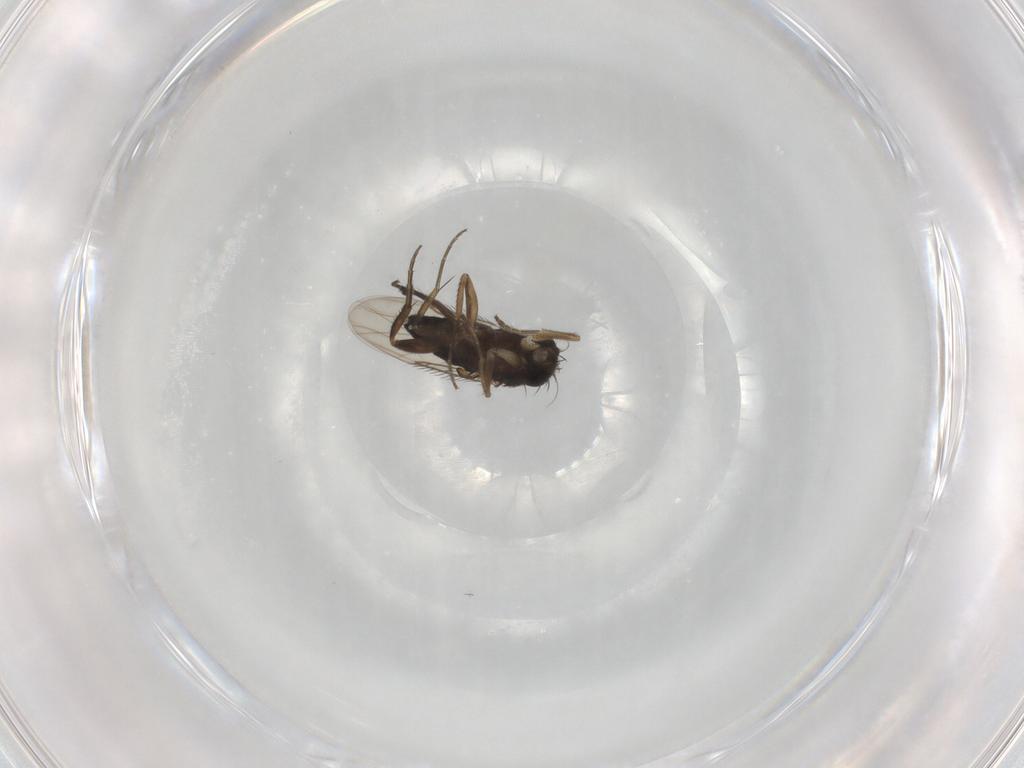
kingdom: Animalia
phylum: Arthropoda
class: Insecta
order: Diptera
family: Phoridae
